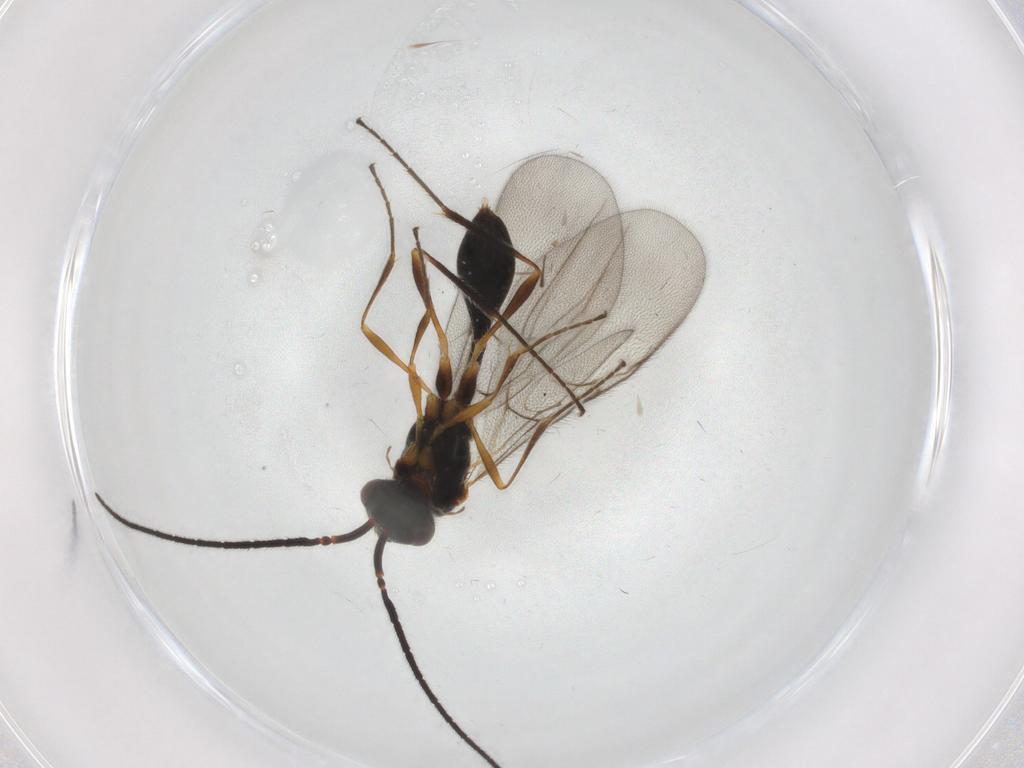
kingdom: Animalia
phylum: Arthropoda
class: Insecta
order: Hymenoptera
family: Diapriidae
